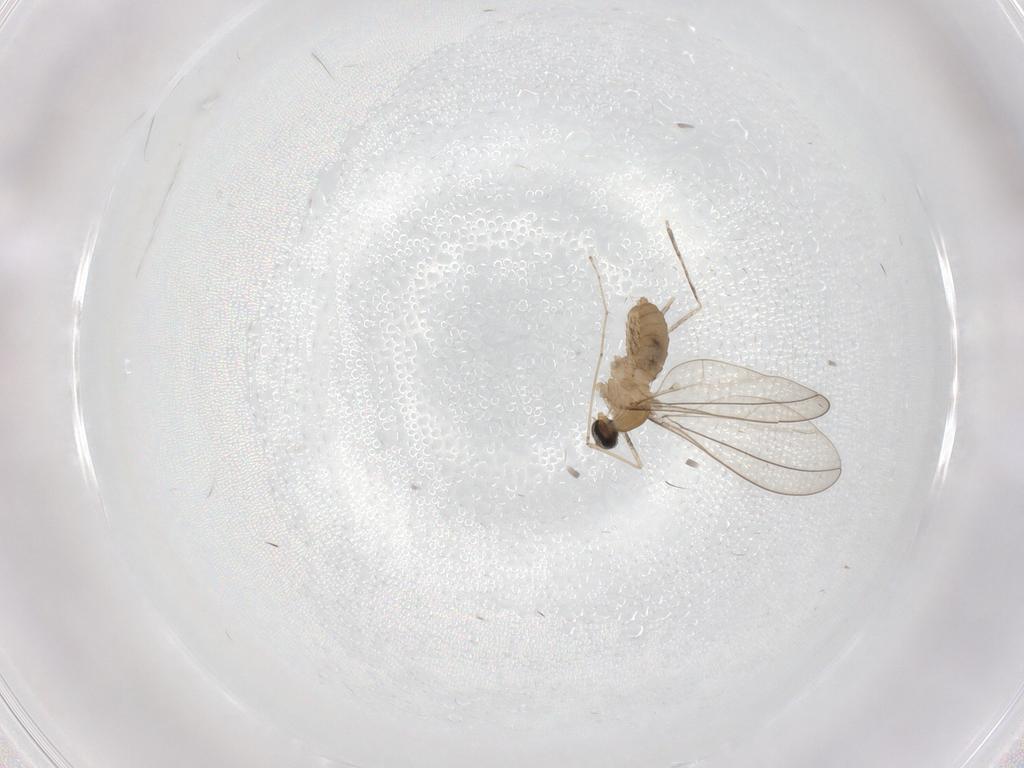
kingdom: Animalia
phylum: Arthropoda
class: Insecta
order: Diptera
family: Cecidomyiidae
